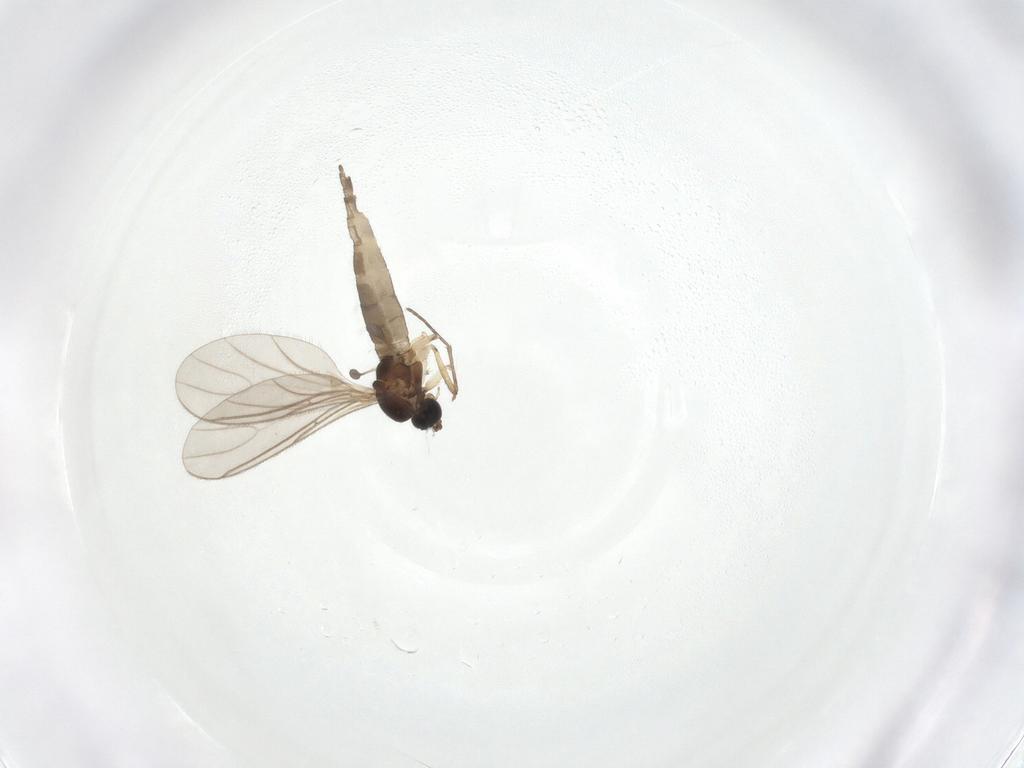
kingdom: Animalia
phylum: Arthropoda
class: Insecta
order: Diptera
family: Sciaridae
